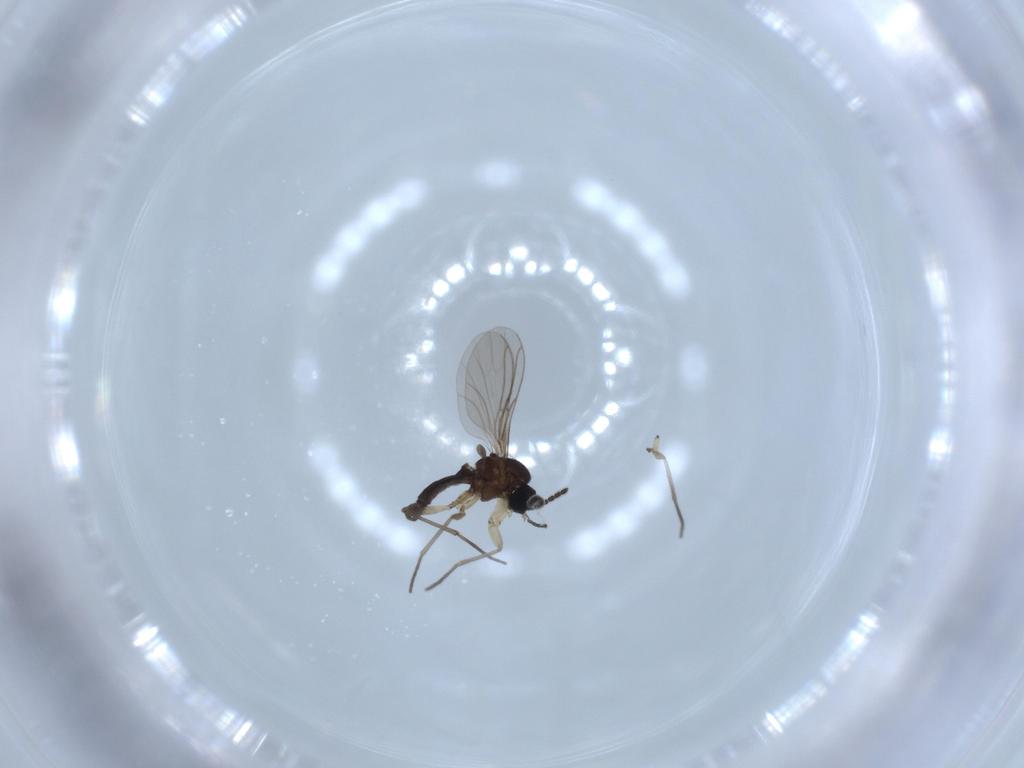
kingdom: Animalia
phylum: Arthropoda
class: Insecta
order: Diptera
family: Sciaridae
